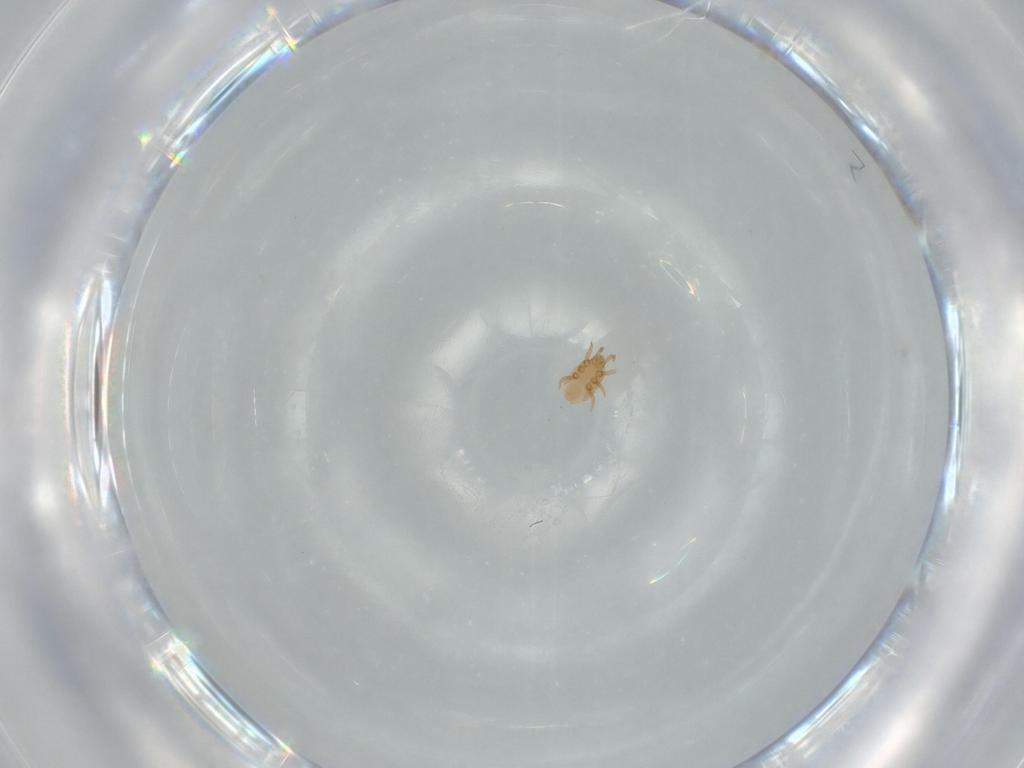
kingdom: Animalia
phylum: Arthropoda
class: Arachnida
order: Mesostigmata
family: Dinychidae
